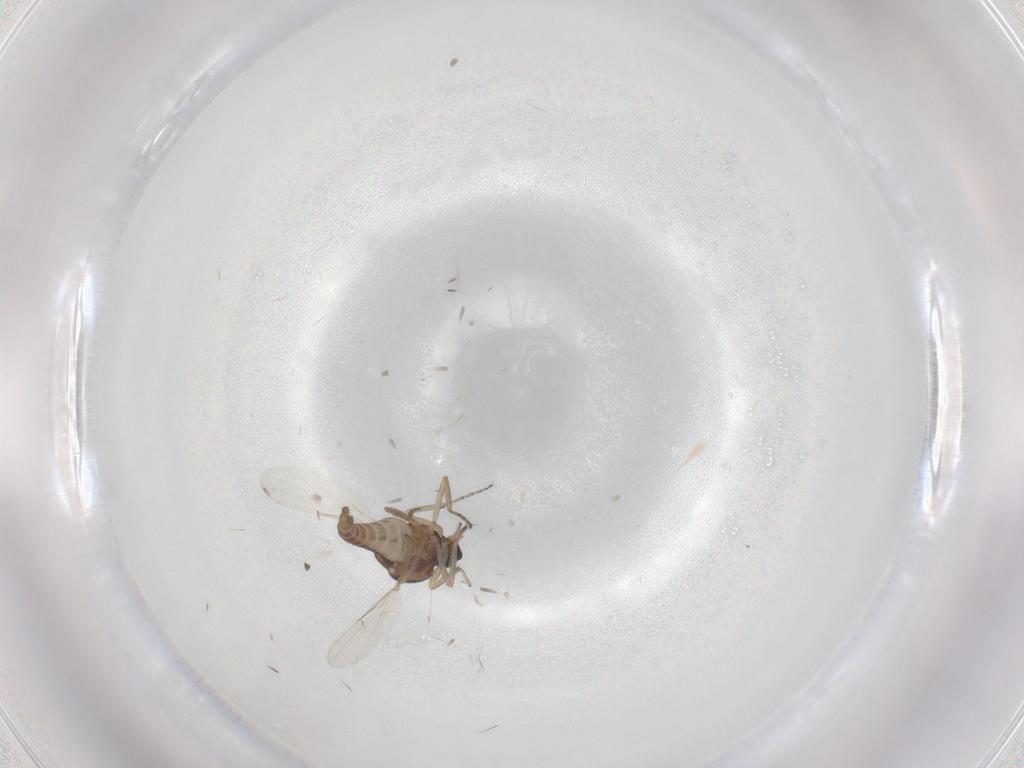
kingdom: Animalia
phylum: Arthropoda
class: Insecta
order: Diptera
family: Ceratopogonidae
